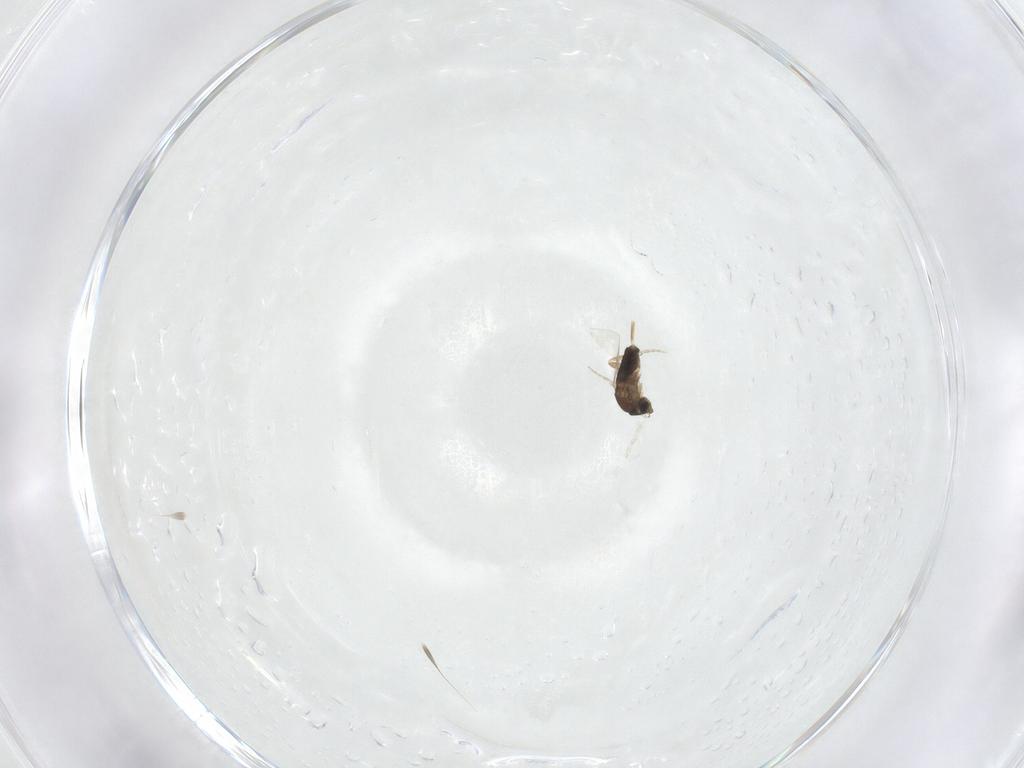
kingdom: Animalia
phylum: Arthropoda
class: Insecta
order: Diptera
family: Phoridae
